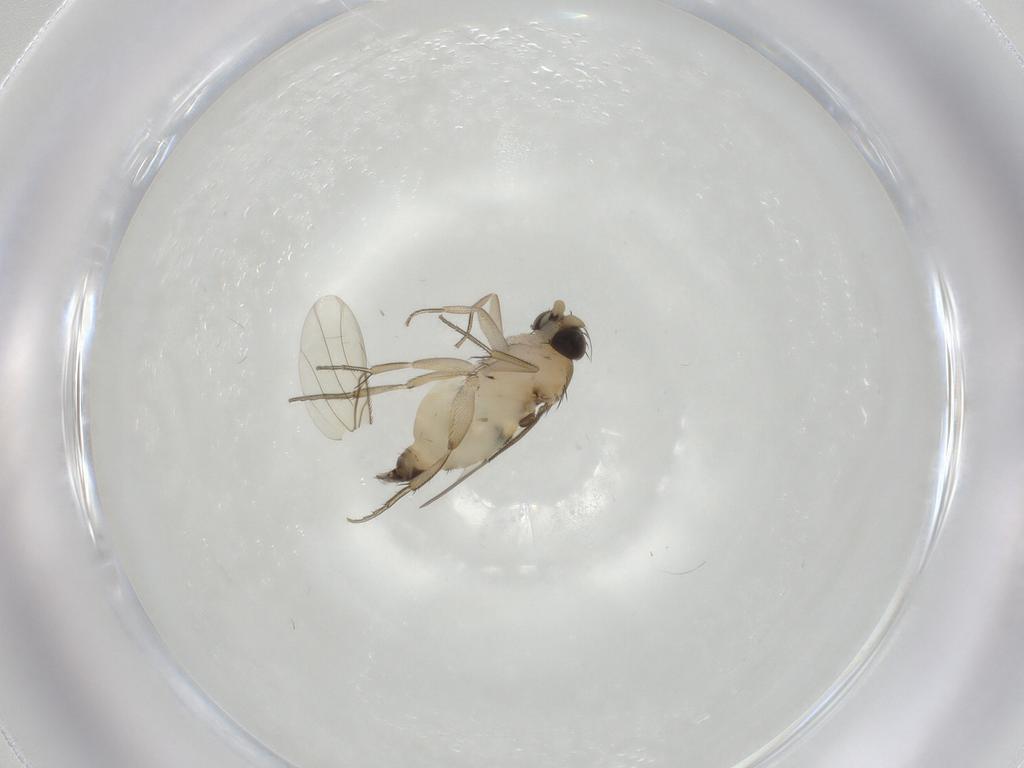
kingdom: Animalia
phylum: Arthropoda
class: Insecta
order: Diptera
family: Phoridae
